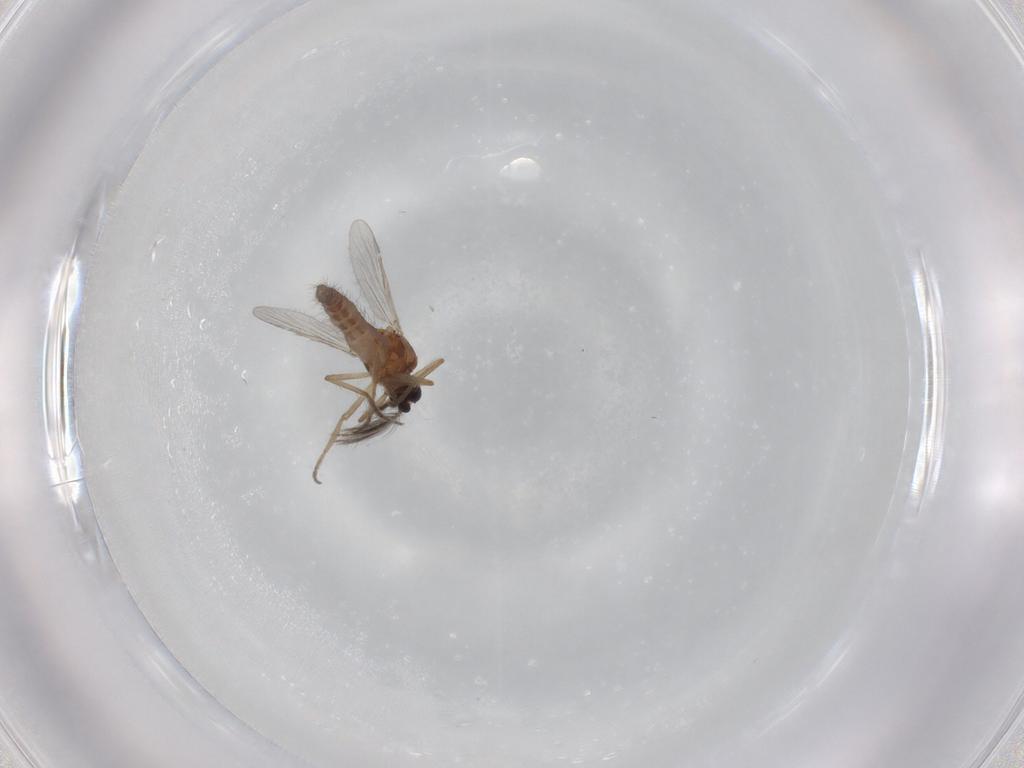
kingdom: Animalia
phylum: Arthropoda
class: Insecta
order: Diptera
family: Ceratopogonidae
